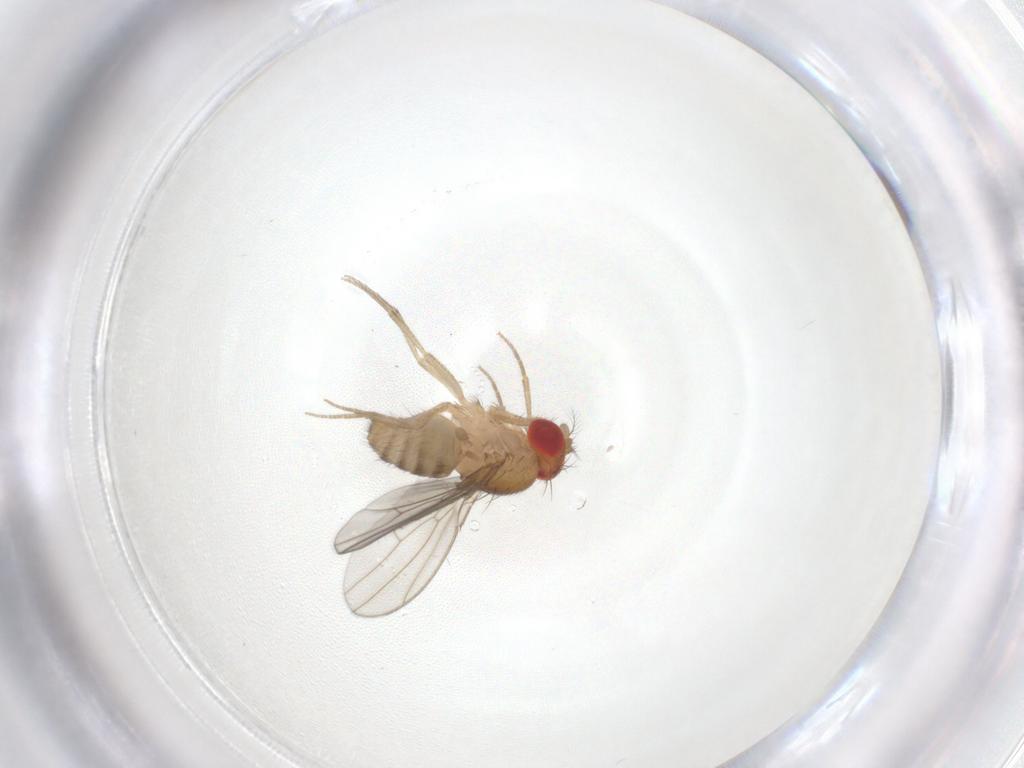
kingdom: Animalia
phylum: Arthropoda
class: Insecta
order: Diptera
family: Drosophilidae
